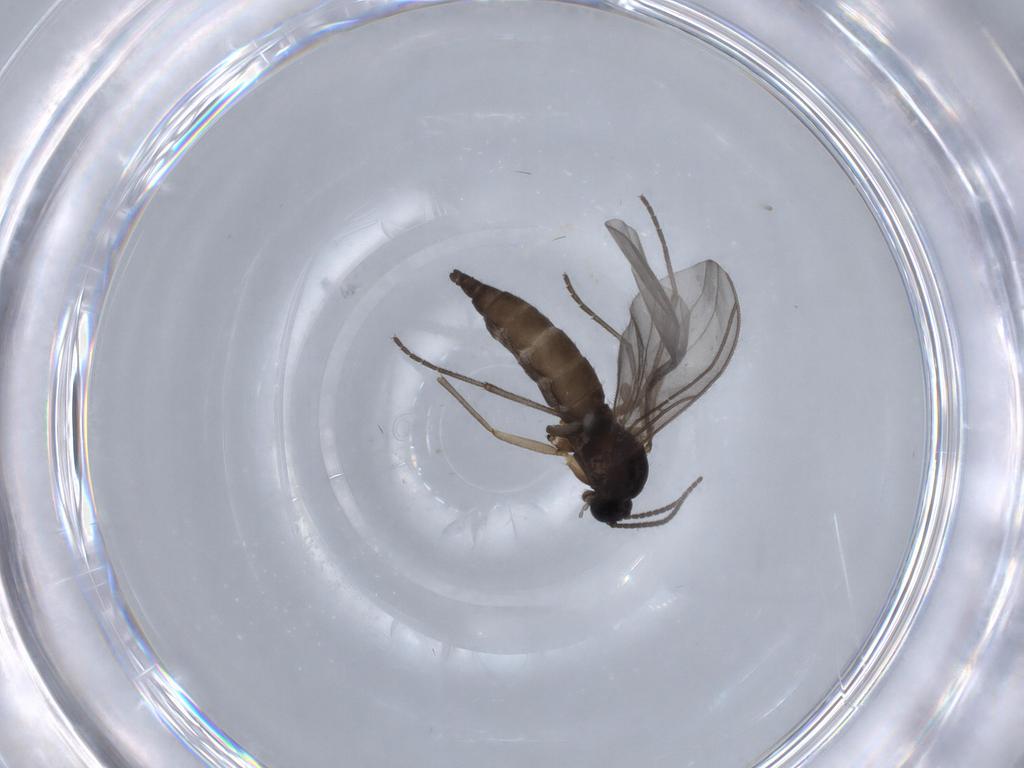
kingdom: Animalia
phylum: Arthropoda
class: Insecta
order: Diptera
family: Sciaridae
